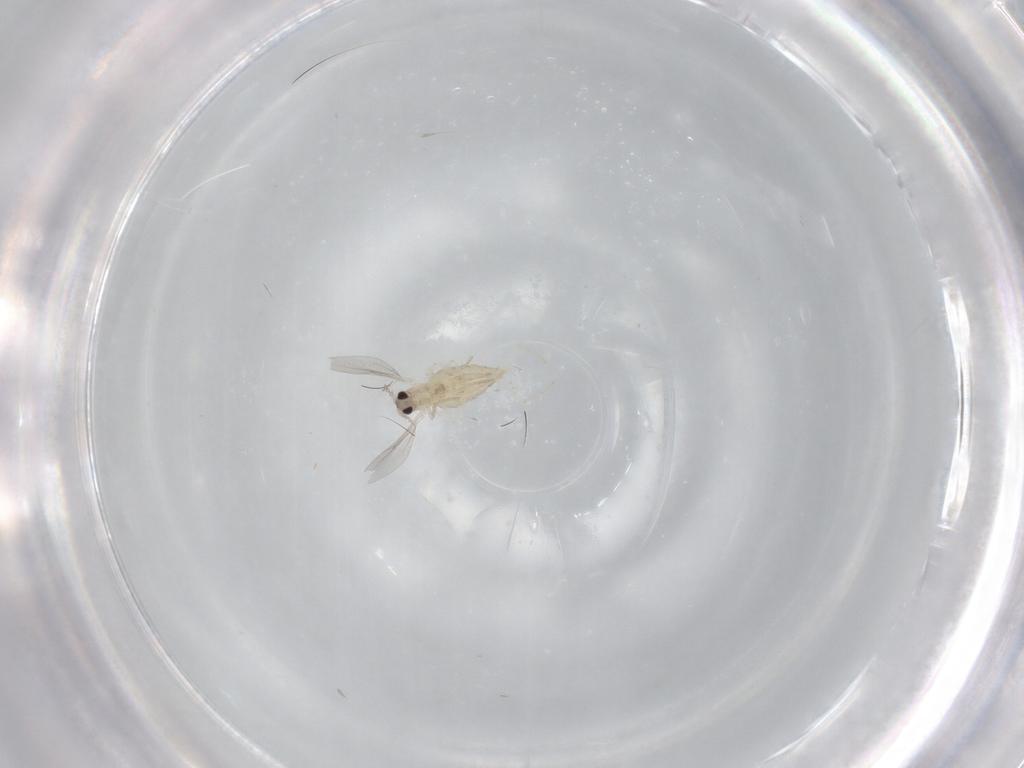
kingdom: Animalia
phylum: Arthropoda
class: Insecta
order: Diptera
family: Cecidomyiidae
